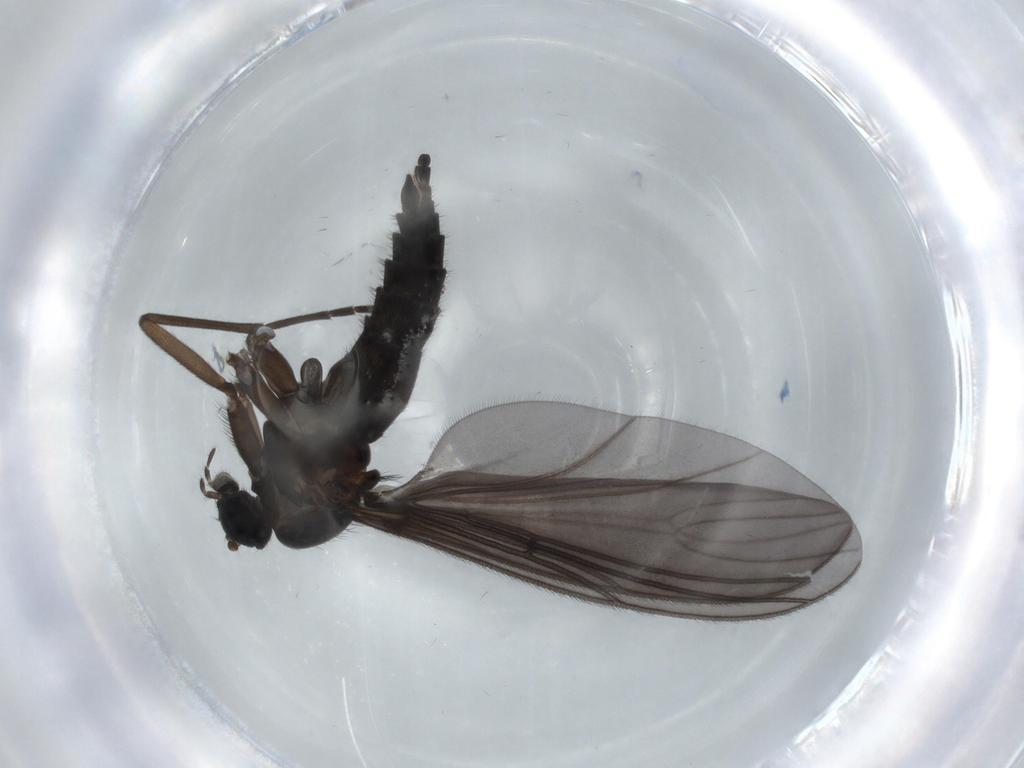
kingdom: Animalia
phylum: Arthropoda
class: Insecta
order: Diptera
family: Sciaridae
